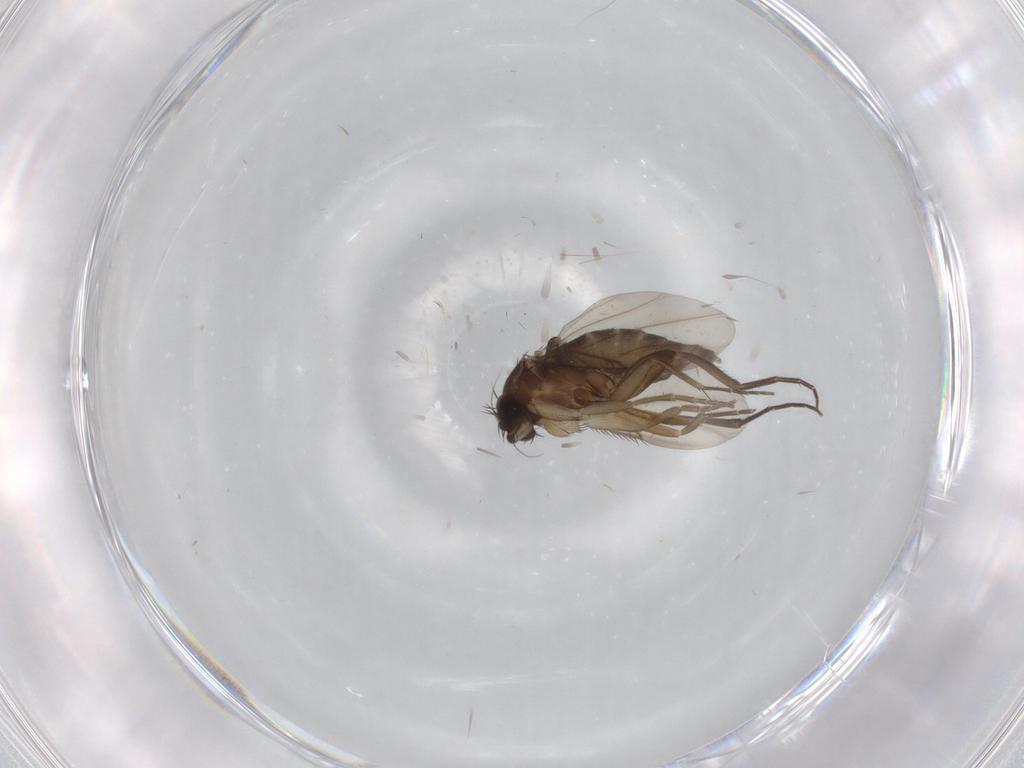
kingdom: Animalia
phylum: Arthropoda
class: Insecta
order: Diptera
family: Phoridae
